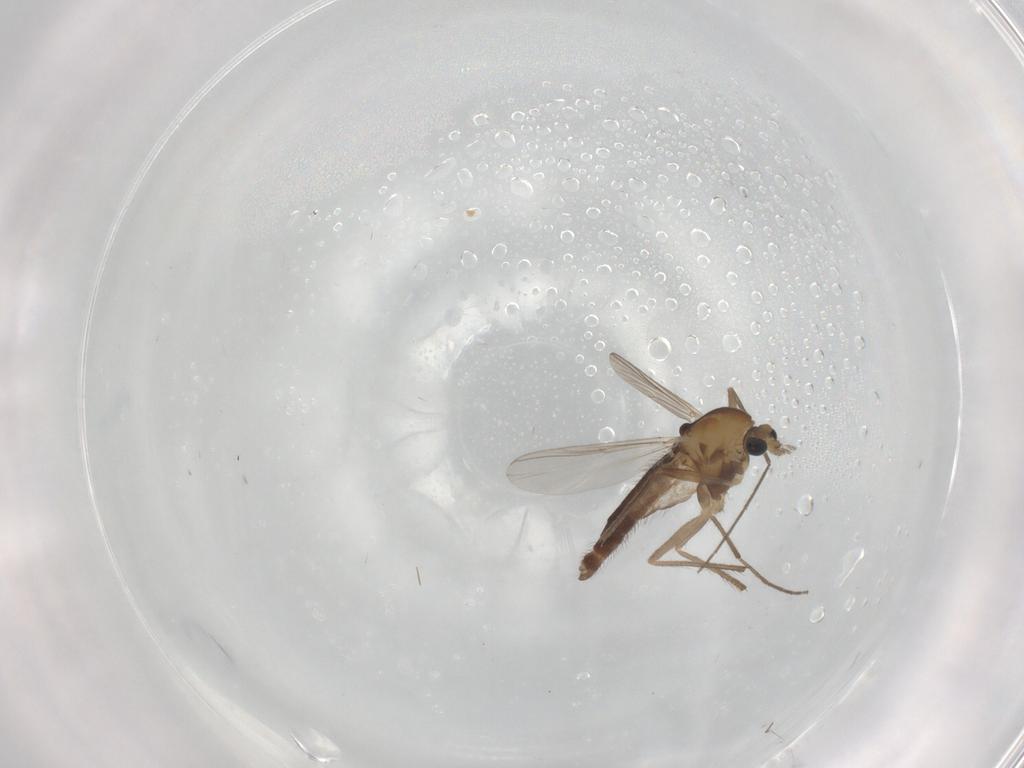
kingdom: Animalia
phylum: Arthropoda
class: Insecta
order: Diptera
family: Chironomidae
